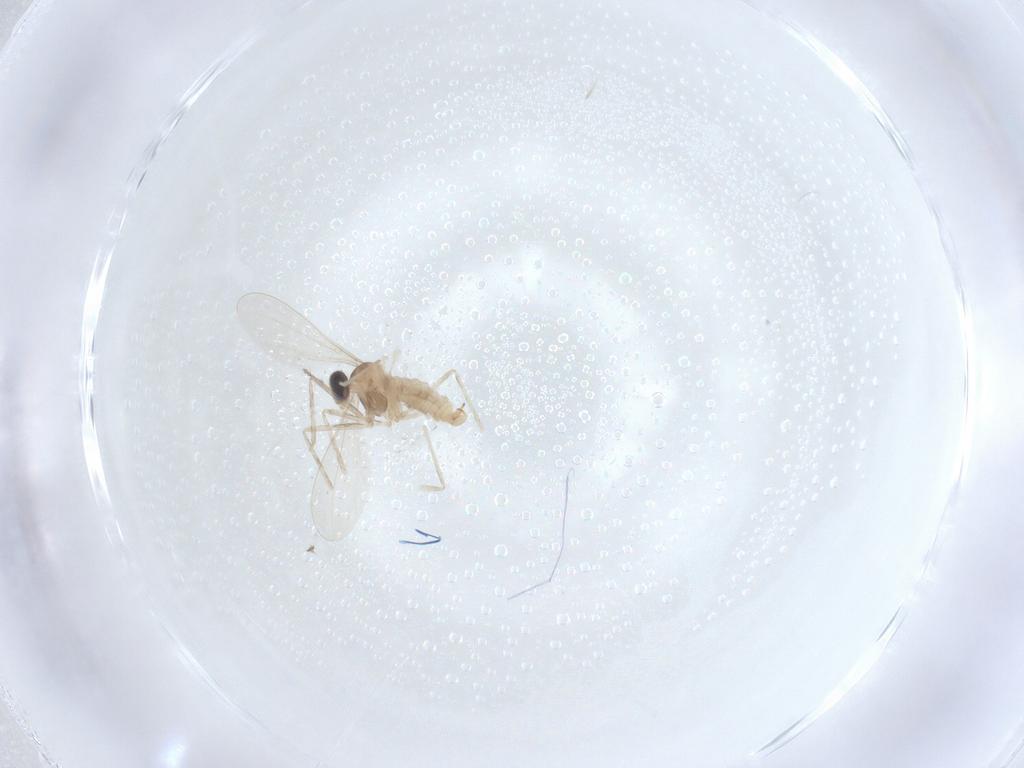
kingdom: Animalia
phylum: Arthropoda
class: Insecta
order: Diptera
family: Cecidomyiidae
